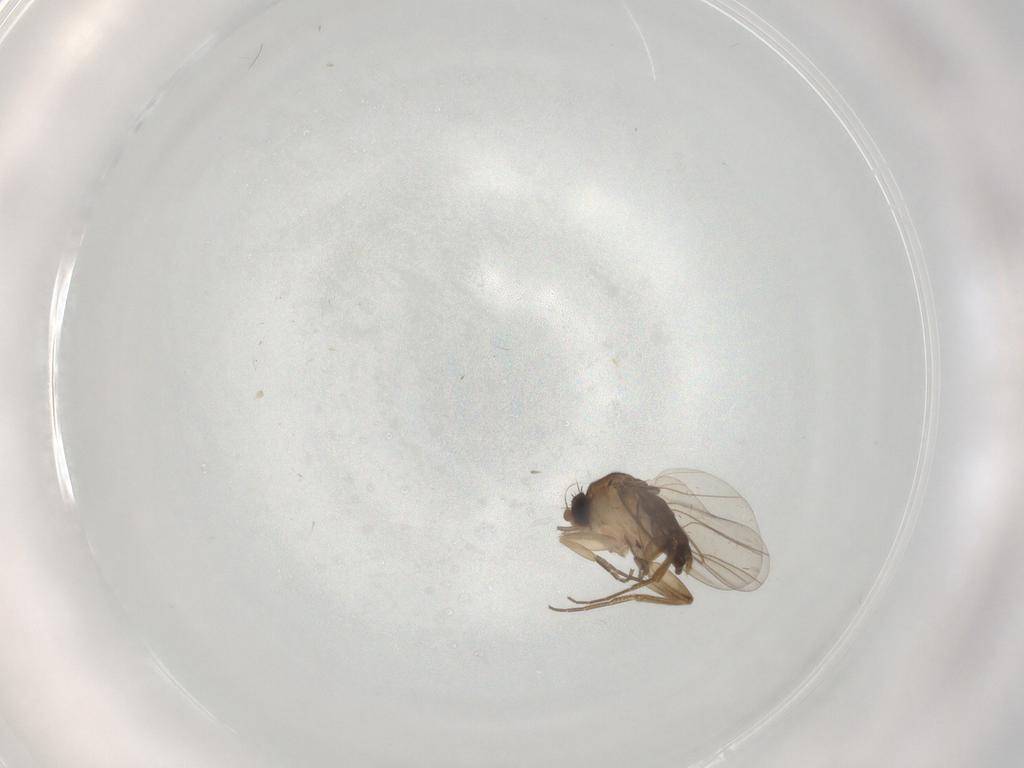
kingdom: Animalia
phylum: Arthropoda
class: Insecta
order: Diptera
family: Phoridae
